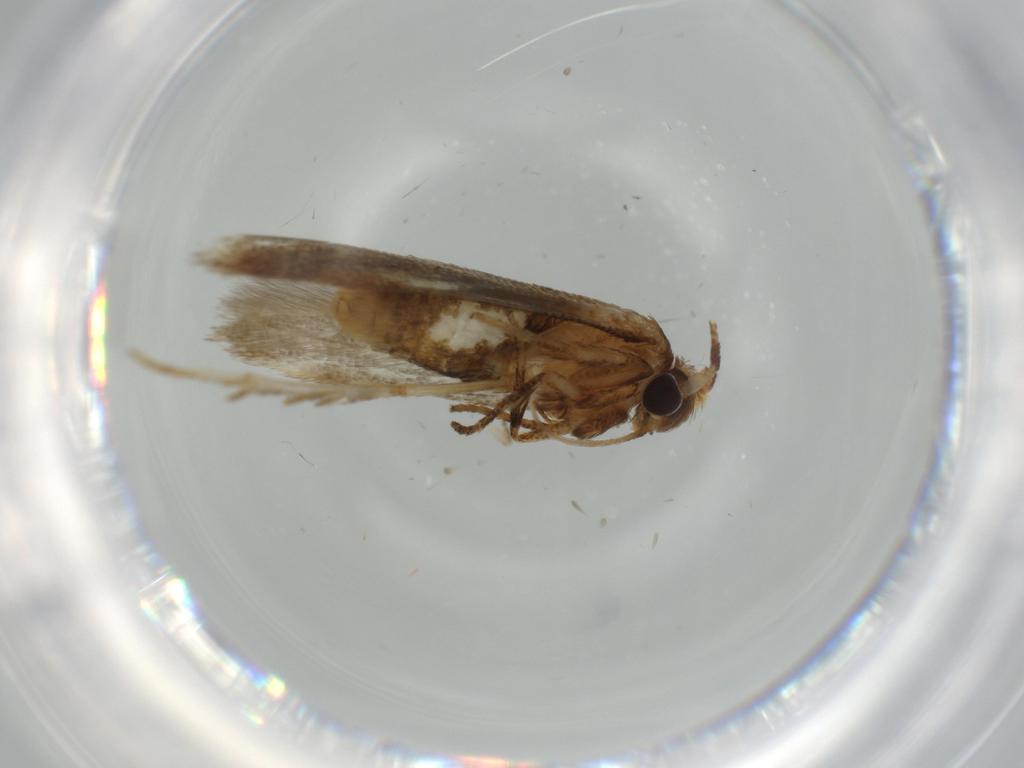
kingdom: Animalia
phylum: Arthropoda
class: Insecta
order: Lepidoptera
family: Blastobasidae
